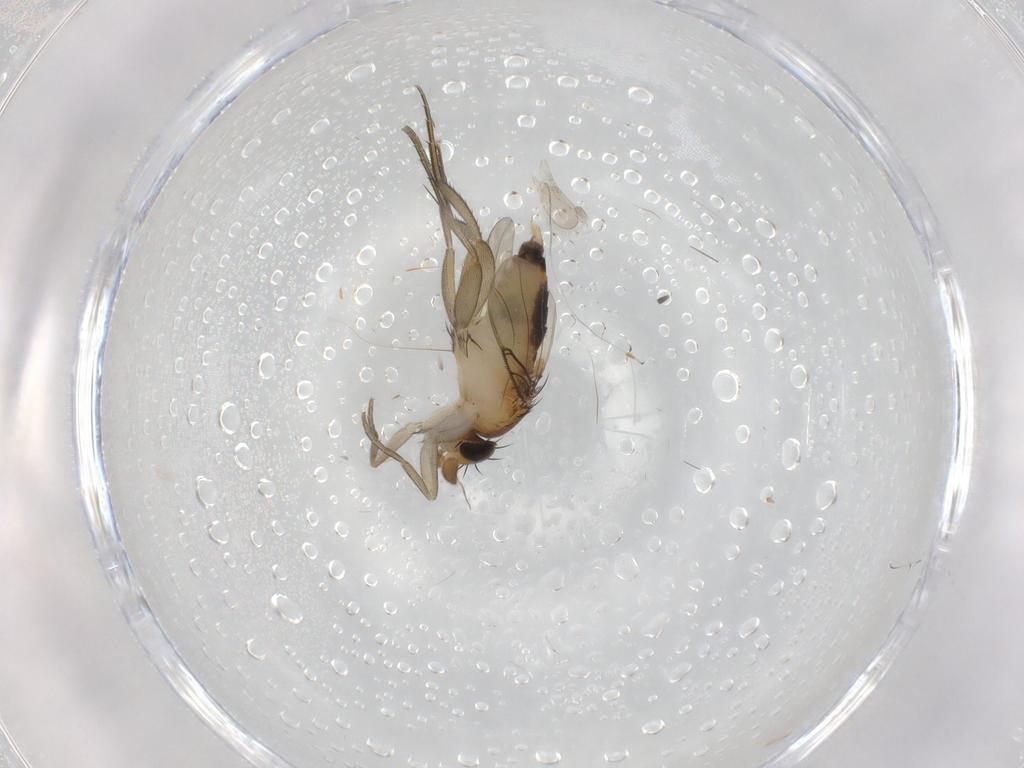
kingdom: Animalia
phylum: Arthropoda
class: Insecta
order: Diptera
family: Phoridae
